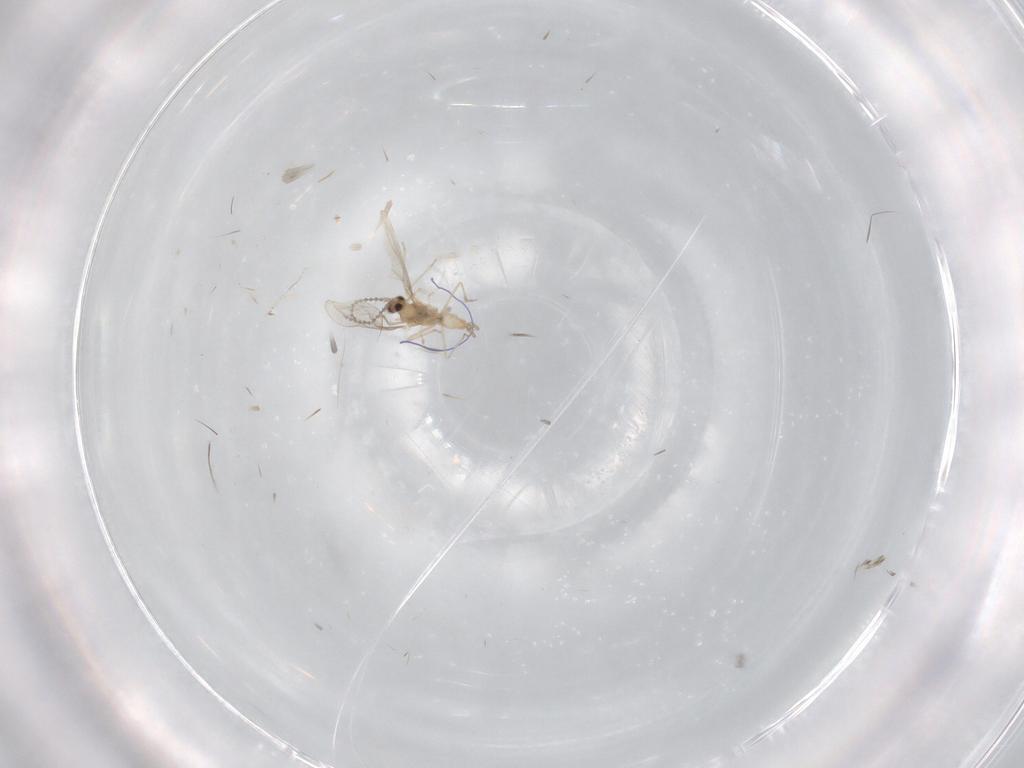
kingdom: Animalia
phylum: Arthropoda
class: Insecta
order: Diptera
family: Cecidomyiidae
